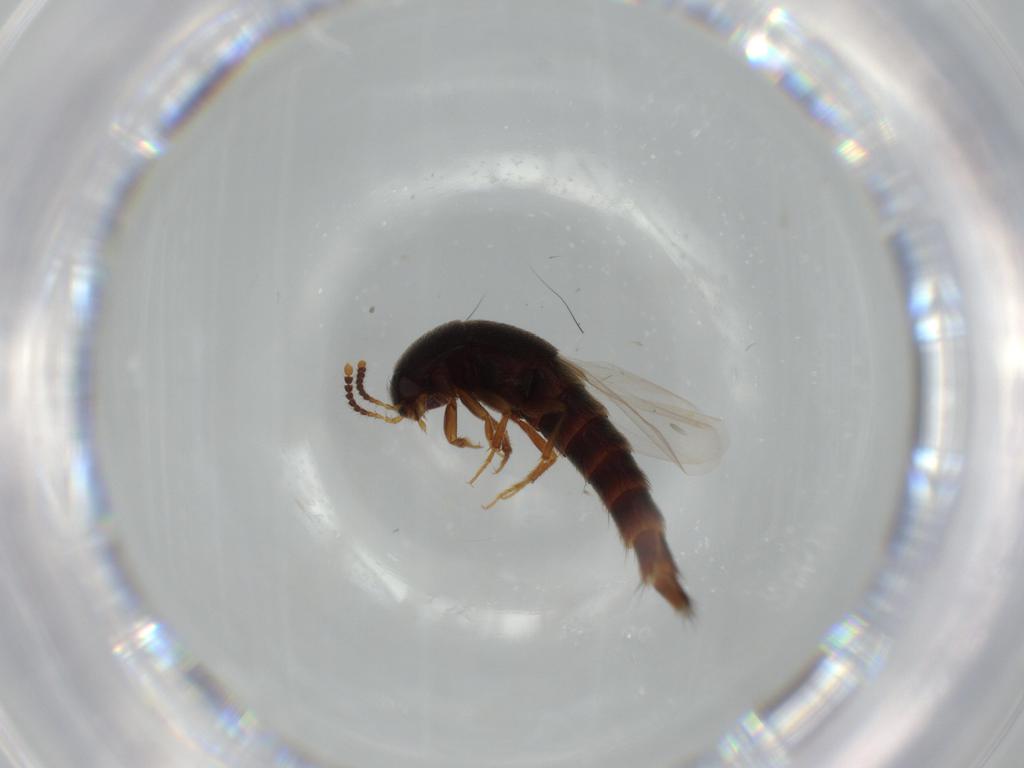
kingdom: Animalia
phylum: Arthropoda
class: Insecta
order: Coleoptera
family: Staphylinidae
